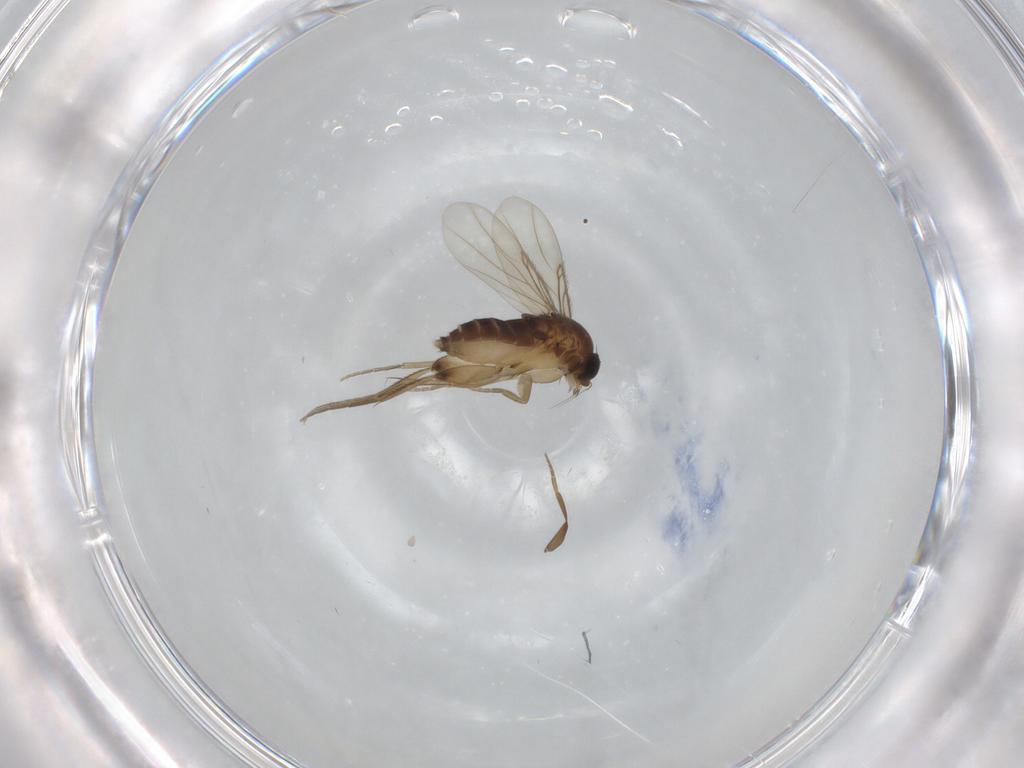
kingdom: Animalia
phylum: Arthropoda
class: Insecta
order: Diptera
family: Phoridae
